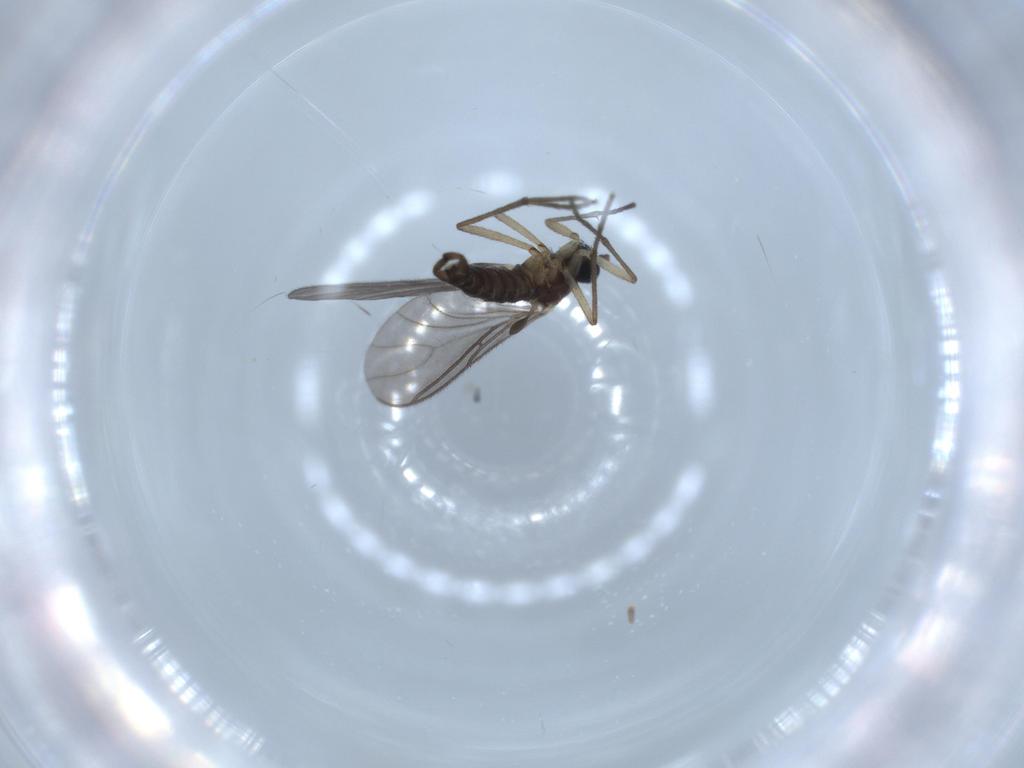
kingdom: Animalia
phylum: Arthropoda
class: Insecta
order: Diptera
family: Sciaridae
